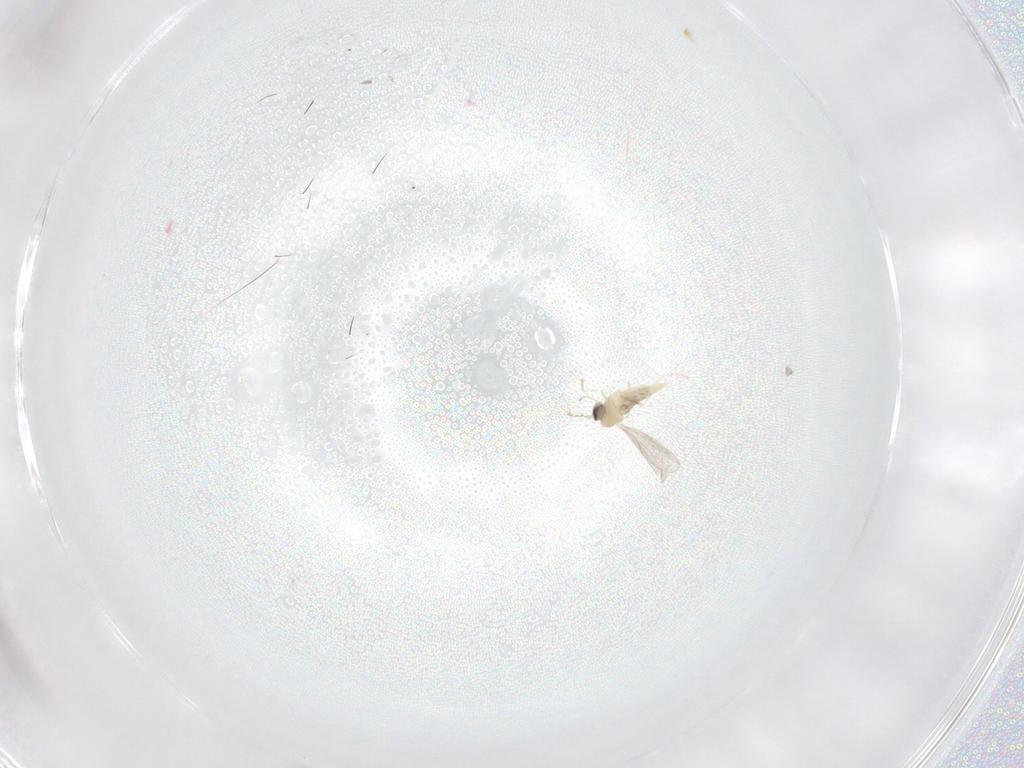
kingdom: Animalia
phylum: Arthropoda
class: Insecta
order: Diptera
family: Cecidomyiidae
